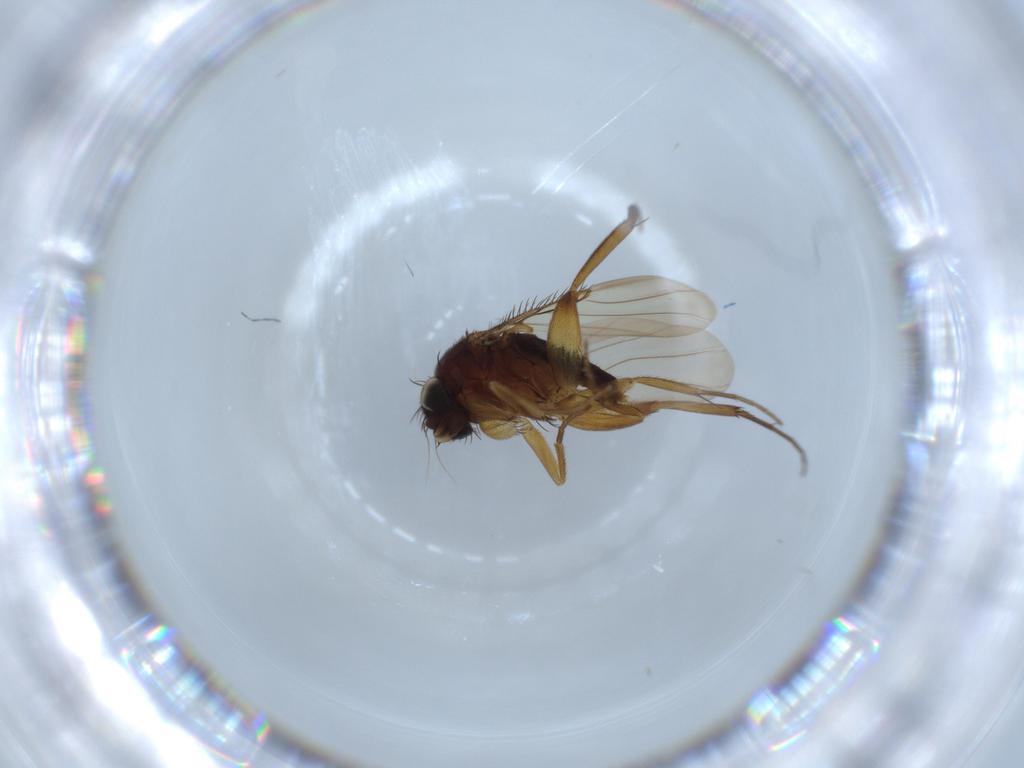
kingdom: Animalia
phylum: Arthropoda
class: Insecta
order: Diptera
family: Phoridae
